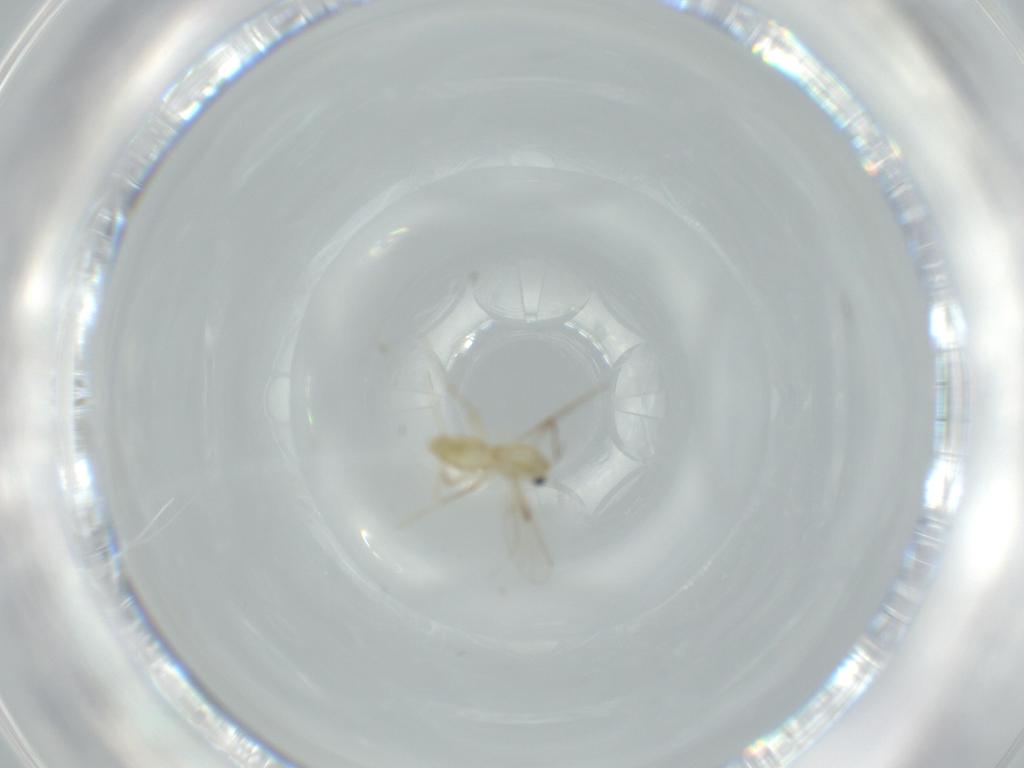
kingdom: Animalia
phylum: Arthropoda
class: Insecta
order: Diptera
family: Chironomidae
